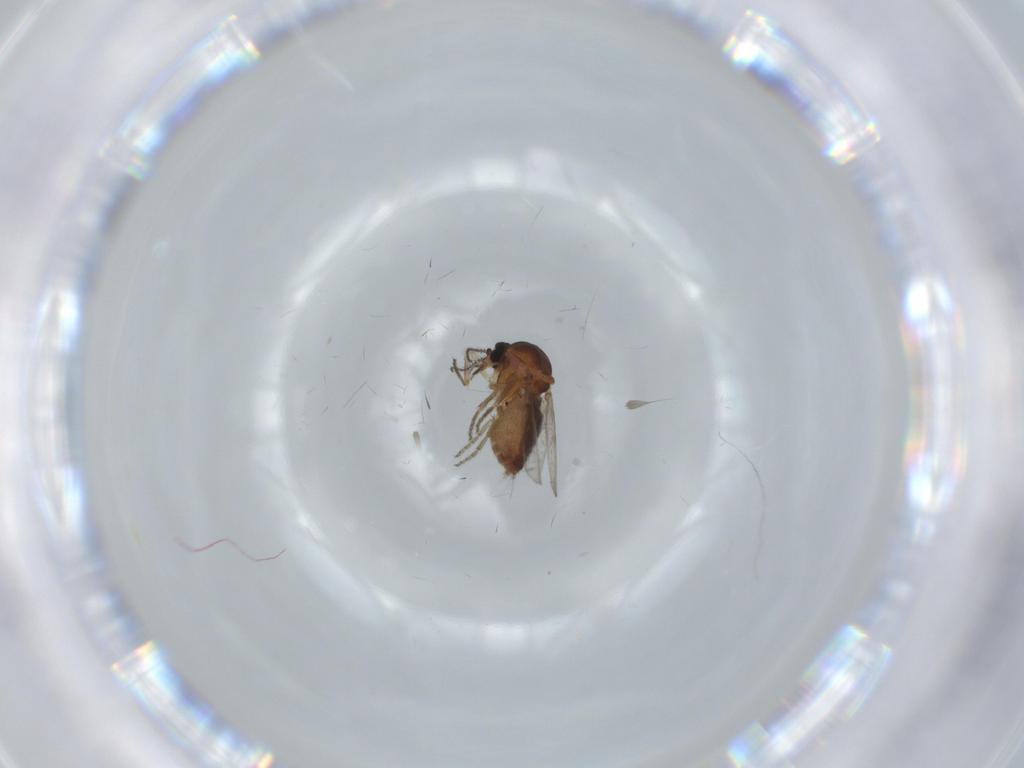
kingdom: Animalia
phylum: Arthropoda
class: Insecta
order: Diptera
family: Ceratopogonidae
